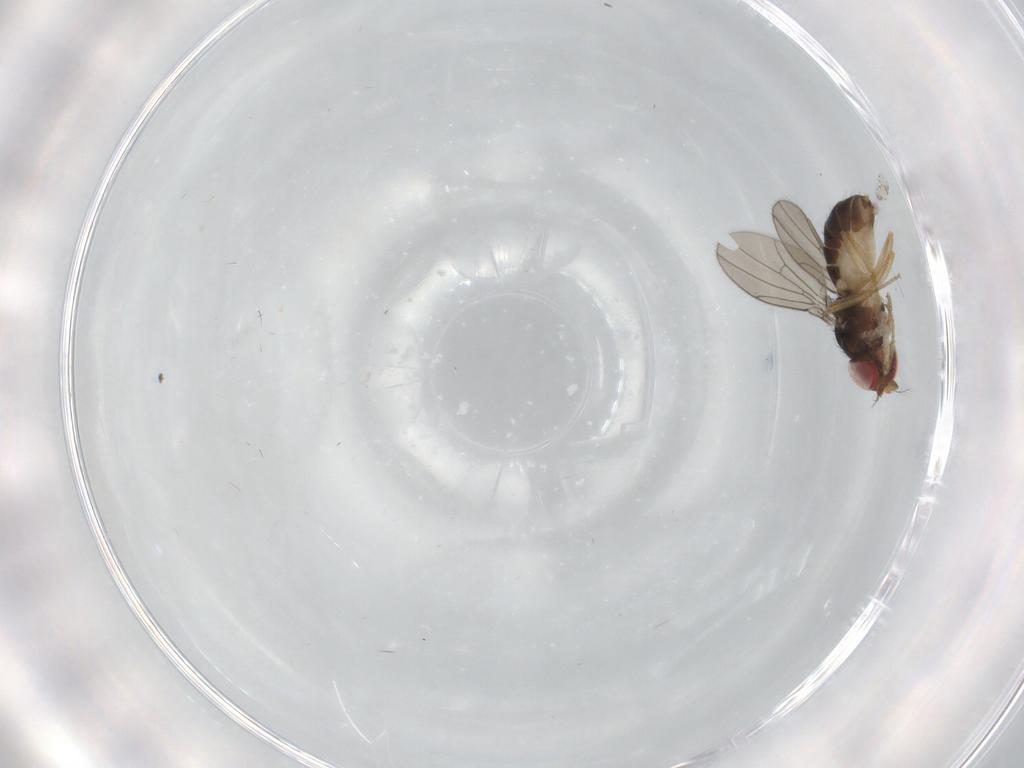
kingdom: Animalia
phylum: Arthropoda
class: Insecta
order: Diptera
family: Drosophilidae
